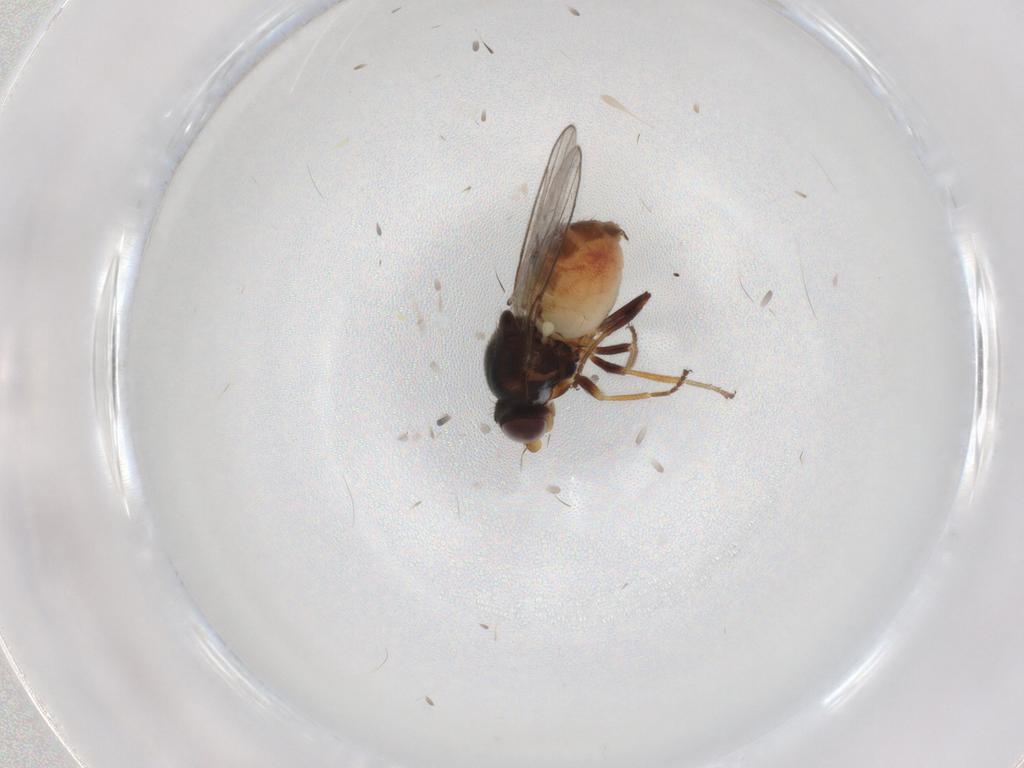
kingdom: Animalia
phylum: Arthropoda
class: Insecta
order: Diptera
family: Chloropidae
